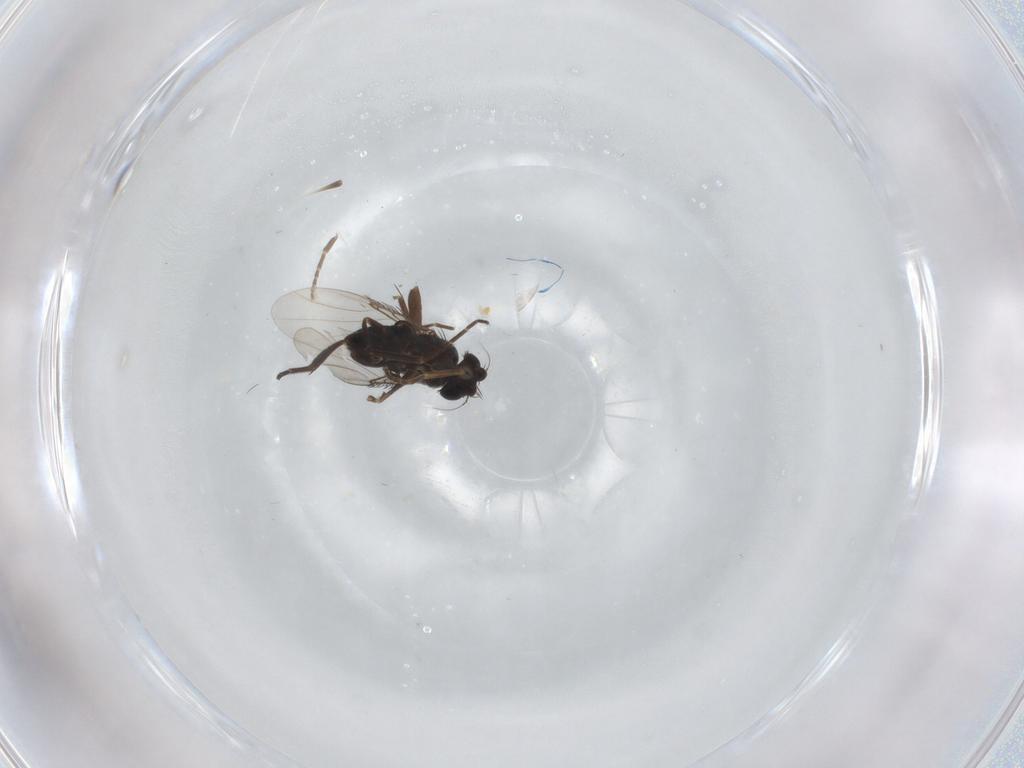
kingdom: Animalia
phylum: Arthropoda
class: Insecta
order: Diptera
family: Phoridae
